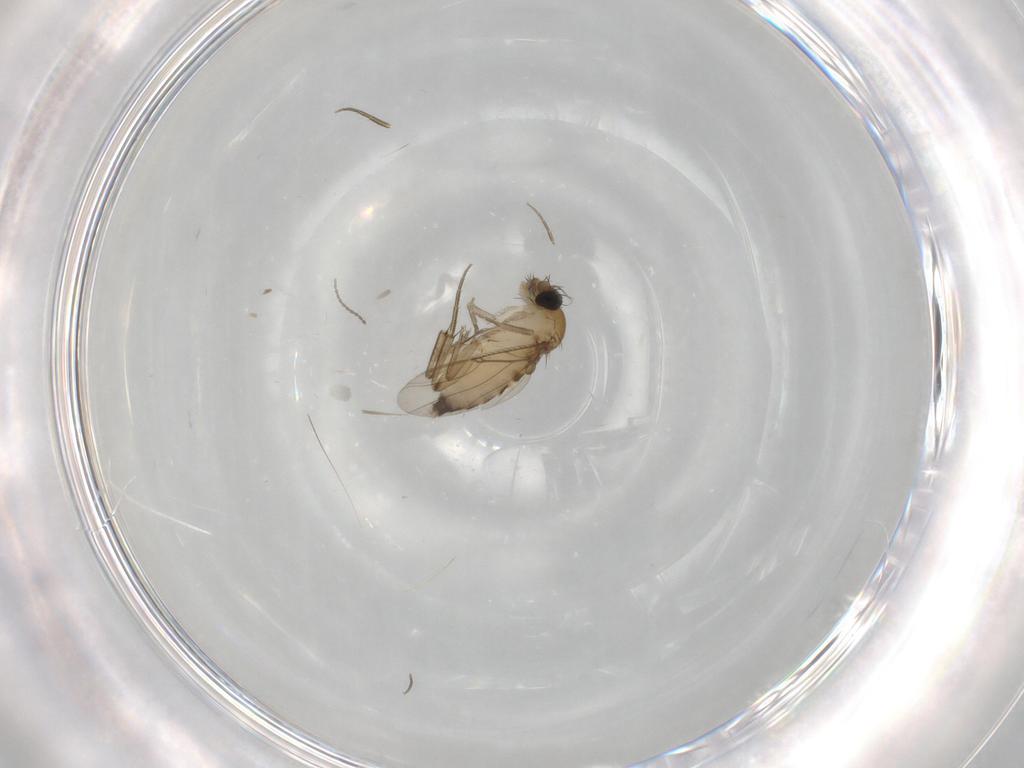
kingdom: Animalia
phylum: Arthropoda
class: Insecta
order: Diptera
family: Phoridae
